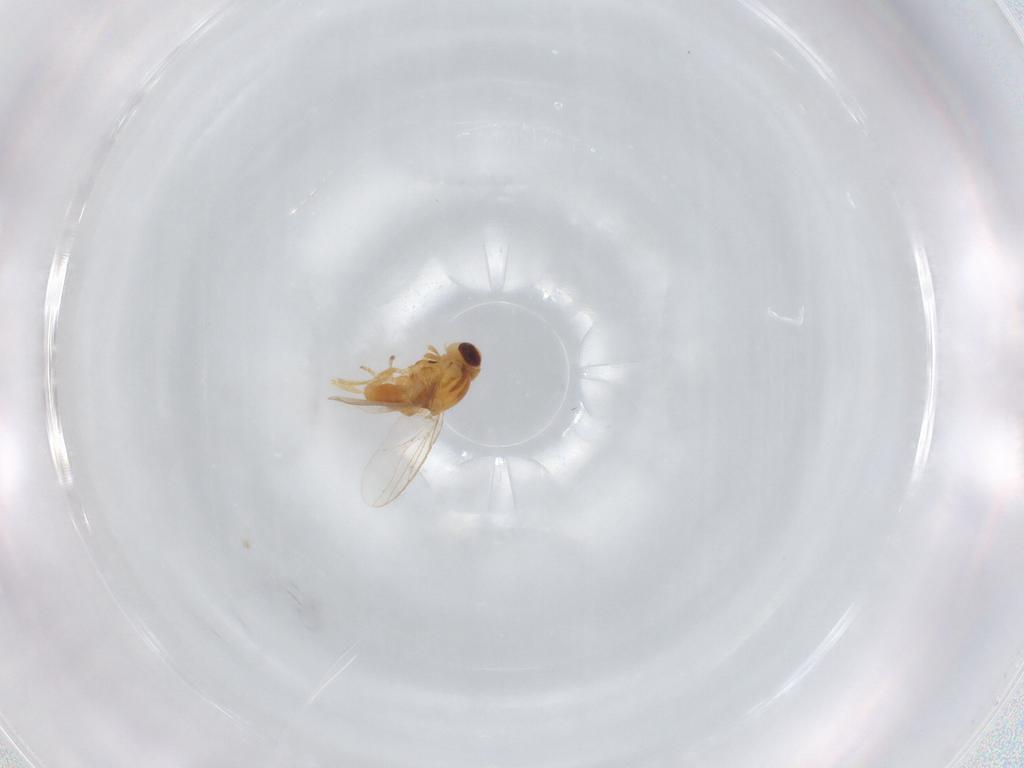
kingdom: Animalia
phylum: Arthropoda
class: Insecta
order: Diptera
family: Chloropidae
